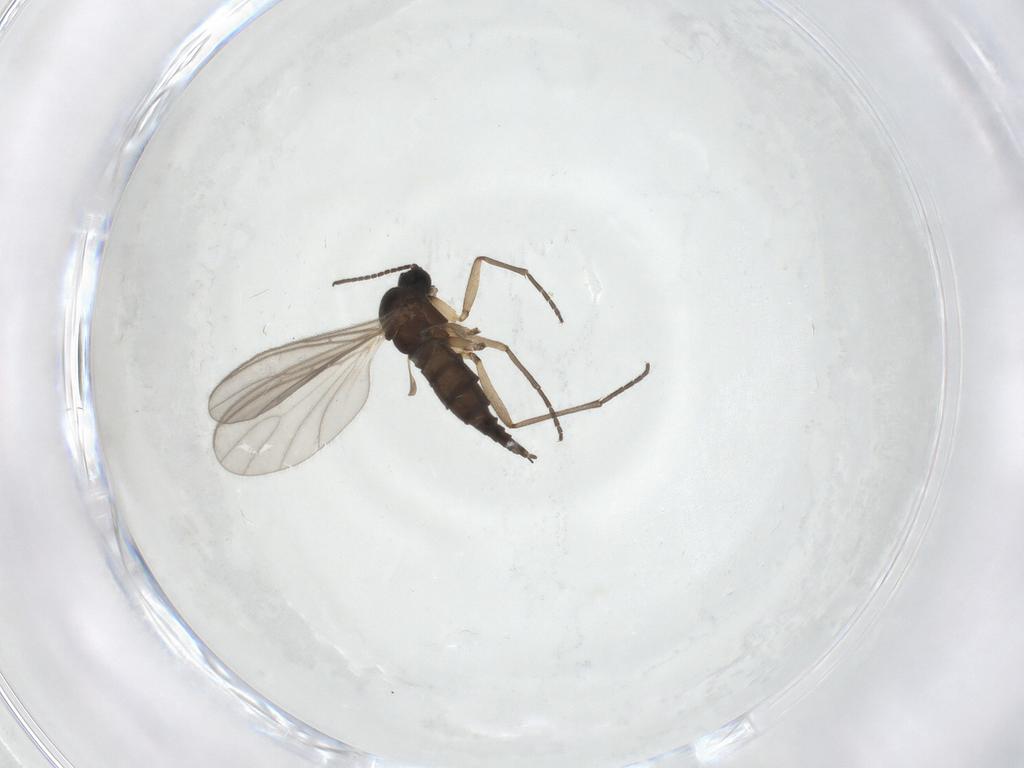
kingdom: Animalia
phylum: Arthropoda
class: Insecta
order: Diptera
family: Sciaridae
